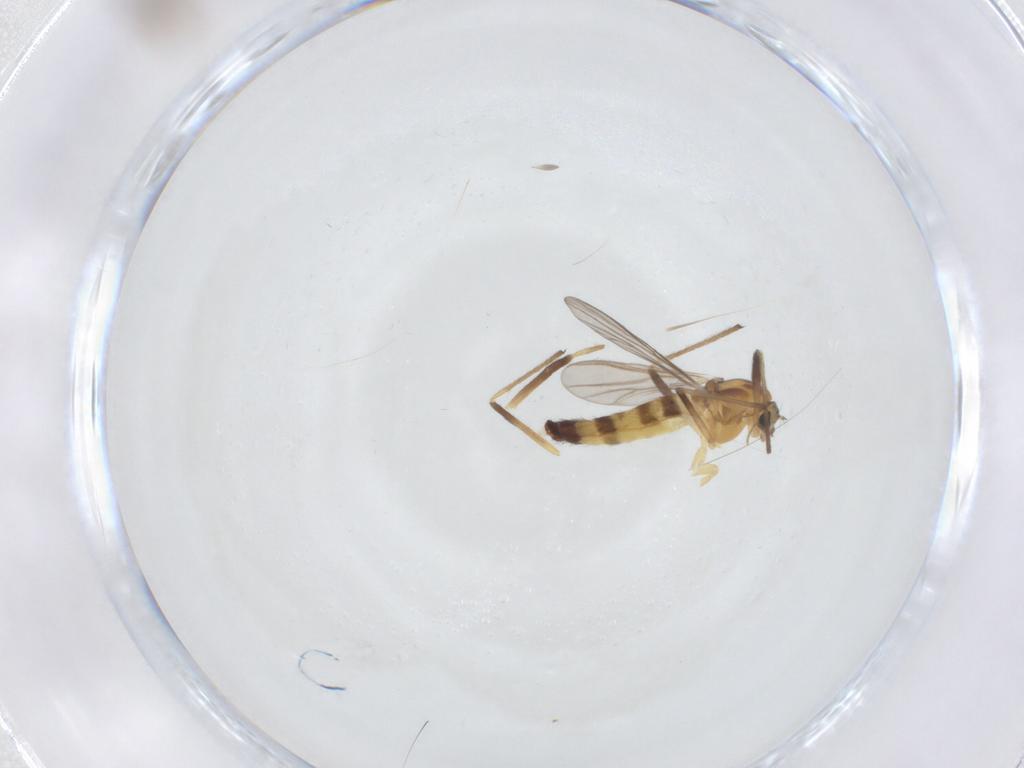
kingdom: Animalia
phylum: Arthropoda
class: Insecta
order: Diptera
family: Chironomidae
